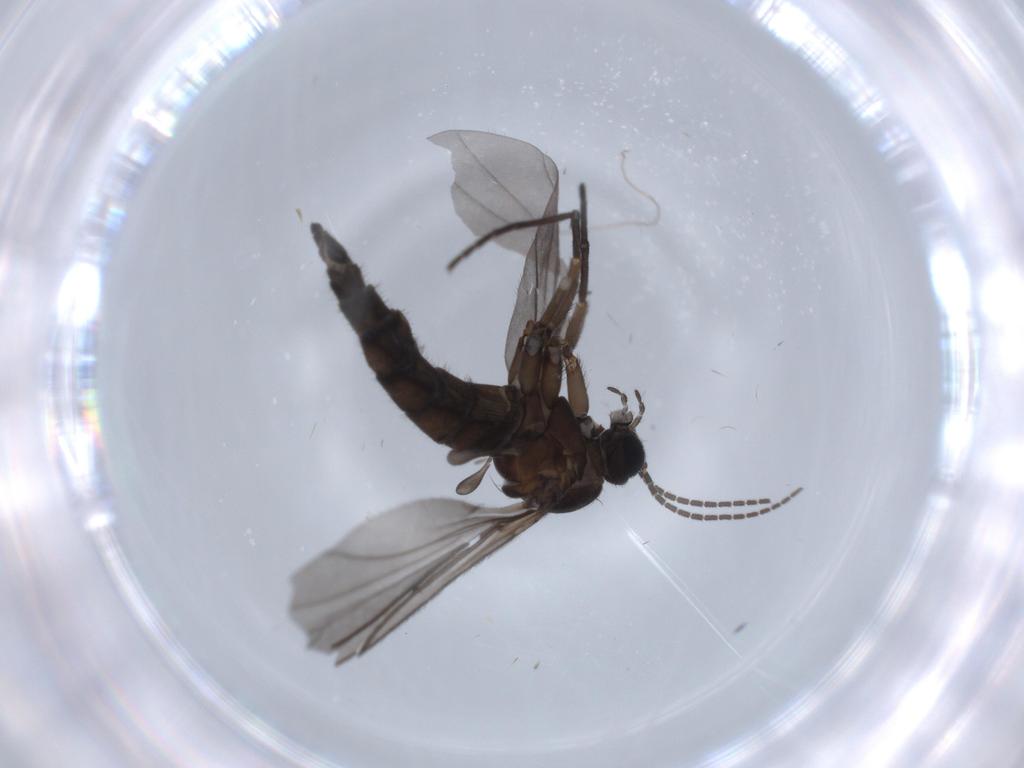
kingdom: Animalia
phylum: Arthropoda
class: Insecta
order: Diptera
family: Cecidomyiidae
